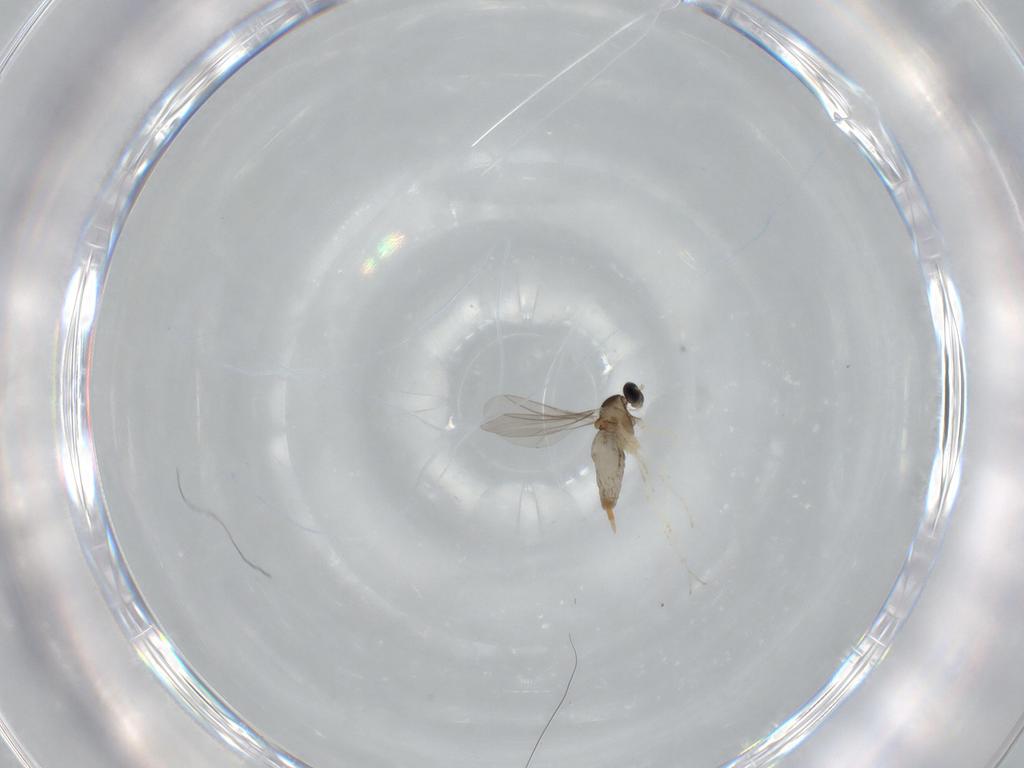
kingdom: Animalia
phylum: Arthropoda
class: Insecta
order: Diptera
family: Cecidomyiidae
